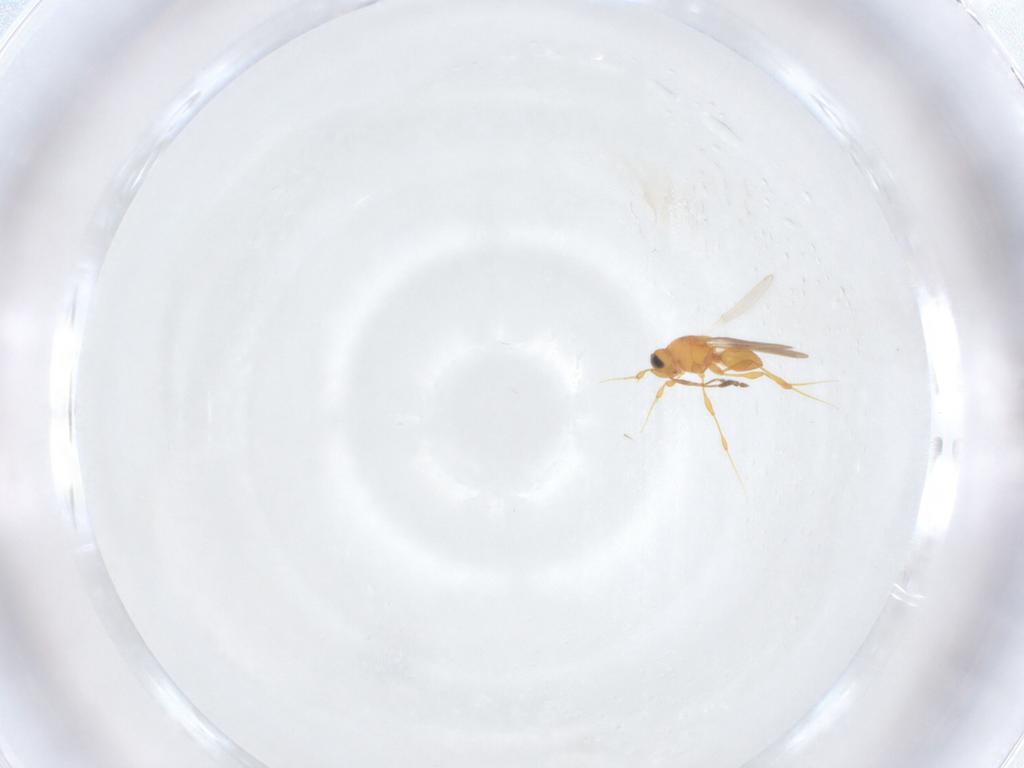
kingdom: Animalia
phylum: Arthropoda
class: Insecta
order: Hymenoptera
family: Platygastridae
